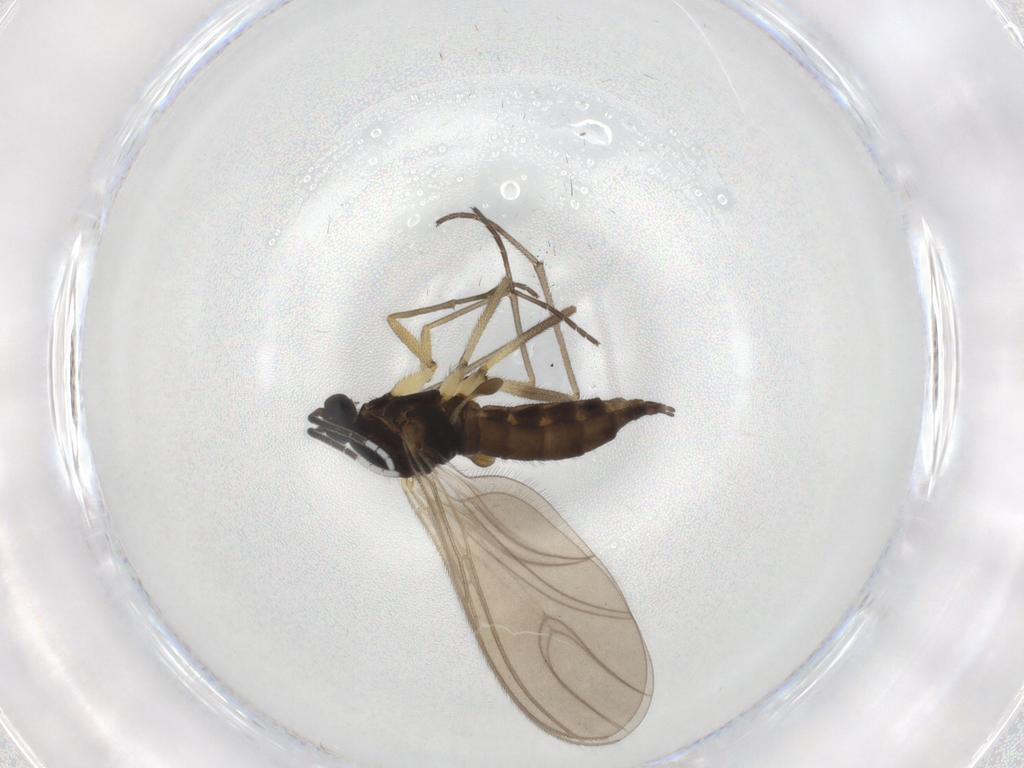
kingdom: Animalia
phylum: Arthropoda
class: Insecta
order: Diptera
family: Sciaridae
